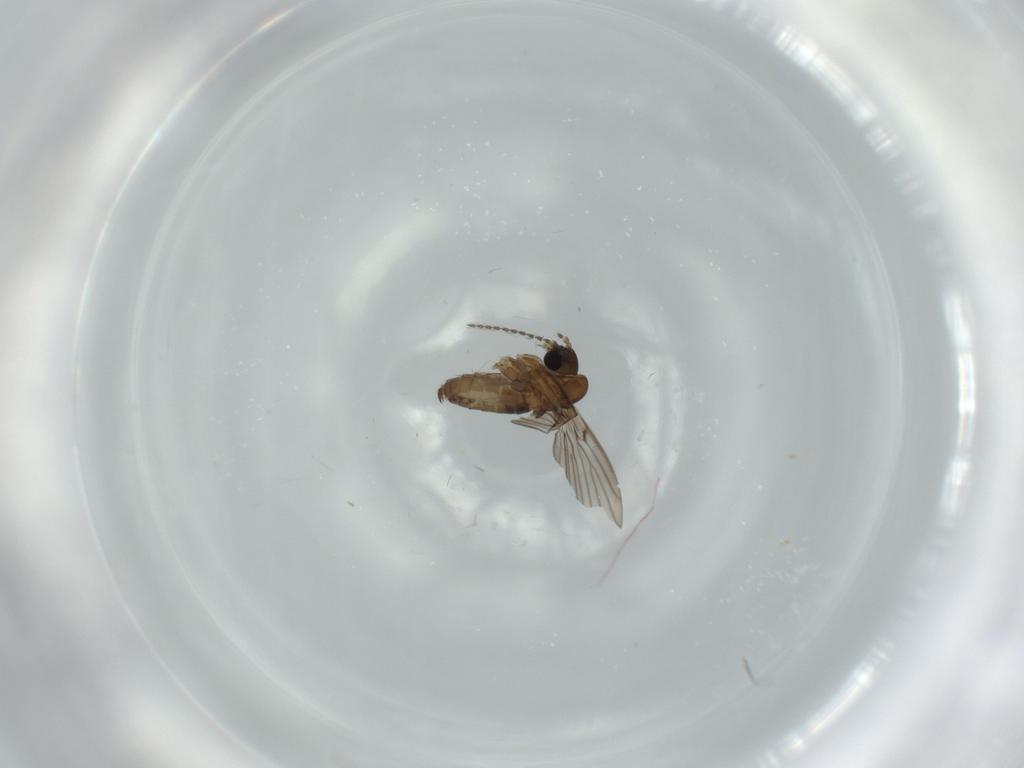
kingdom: Animalia
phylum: Arthropoda
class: Insecta
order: Diptera
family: Psychodidae
